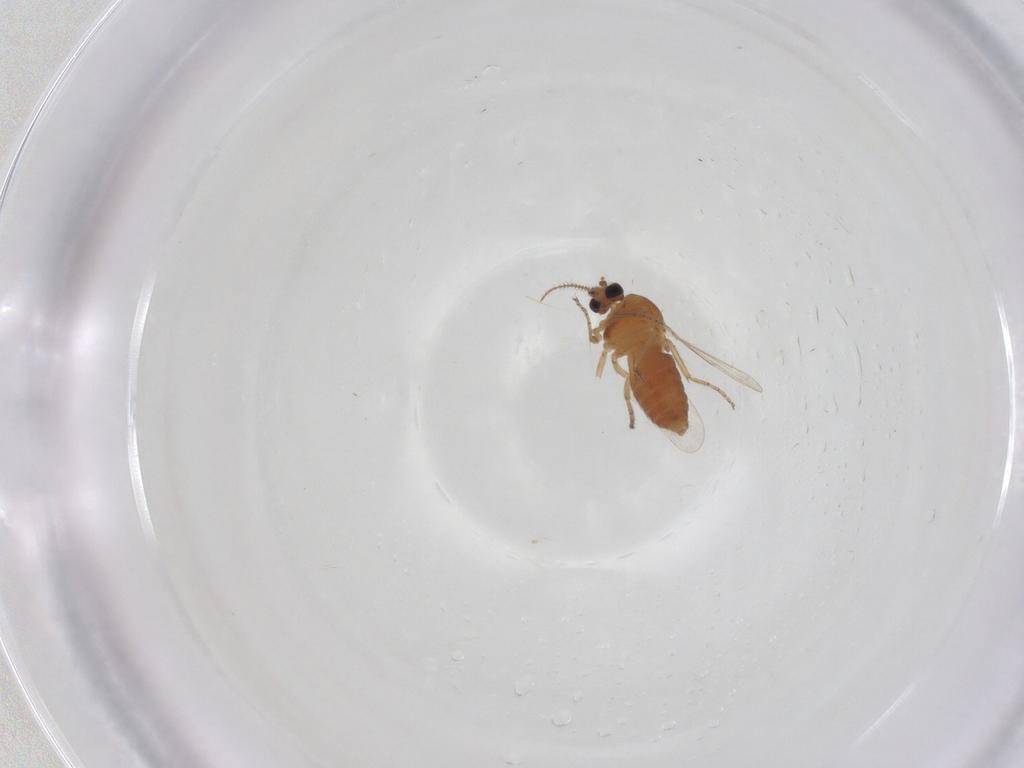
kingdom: Animalia
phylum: Arthropoda
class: Insecta
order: Diptera
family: Ceratopogonidae
